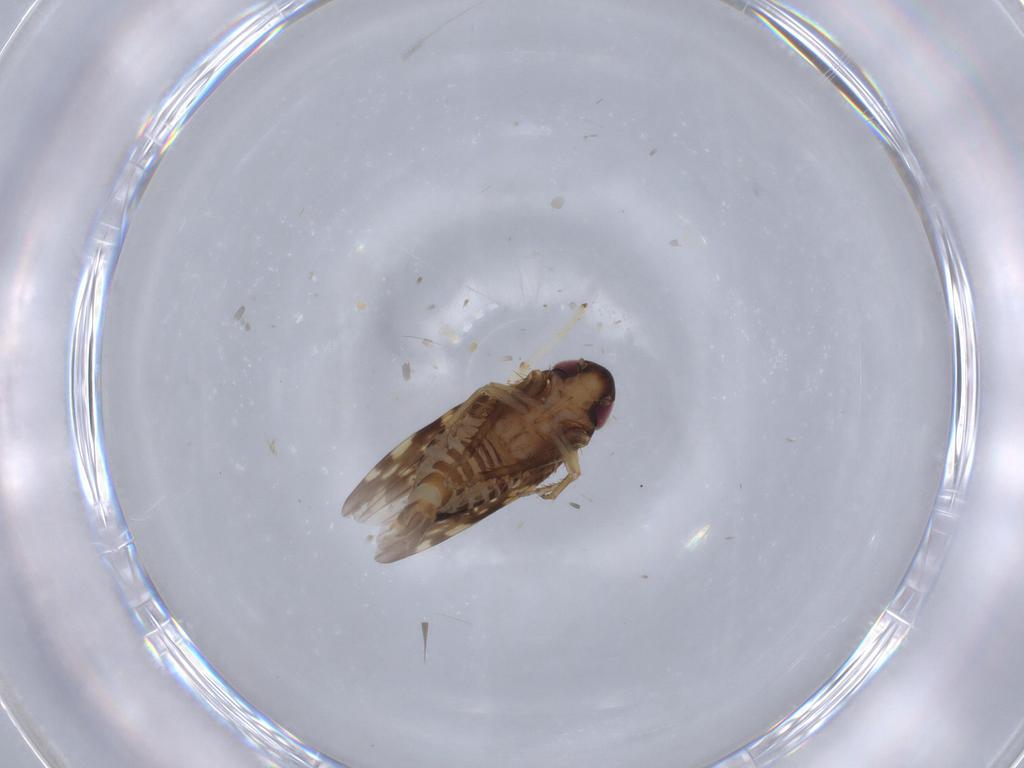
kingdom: Animalia
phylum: Arthropoda
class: Insecta
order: Hemiptera
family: Cicadellidae
